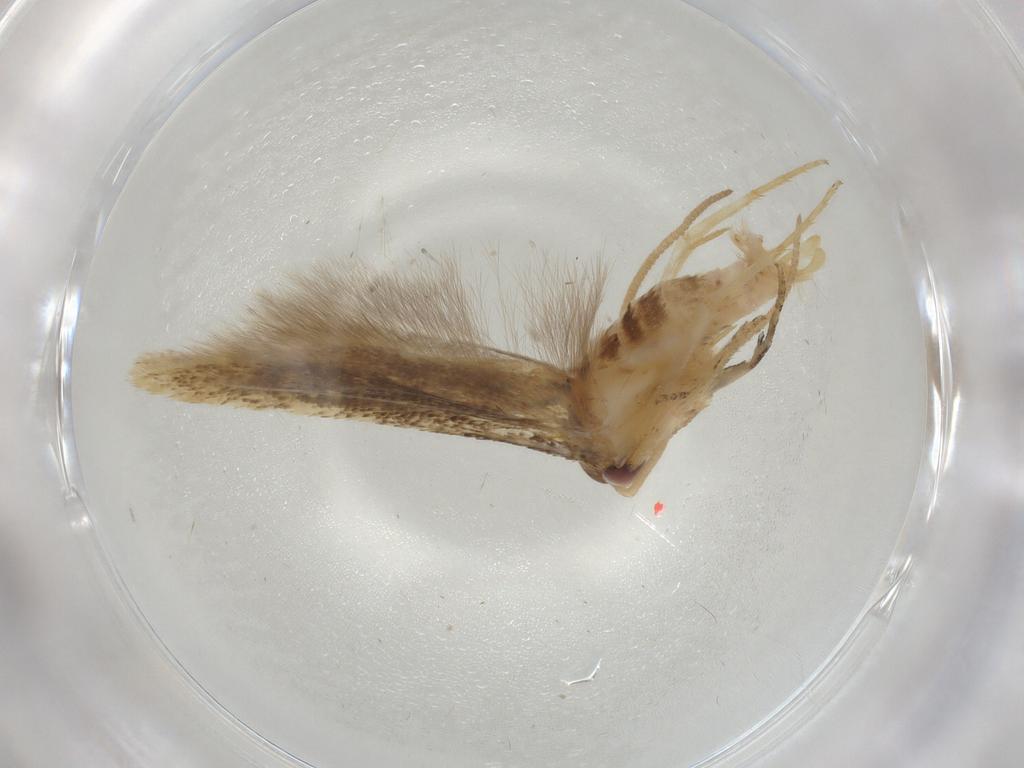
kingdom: Animalia
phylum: Arthropoda
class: Insecta
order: Lepidoptera
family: Gelechiidae
